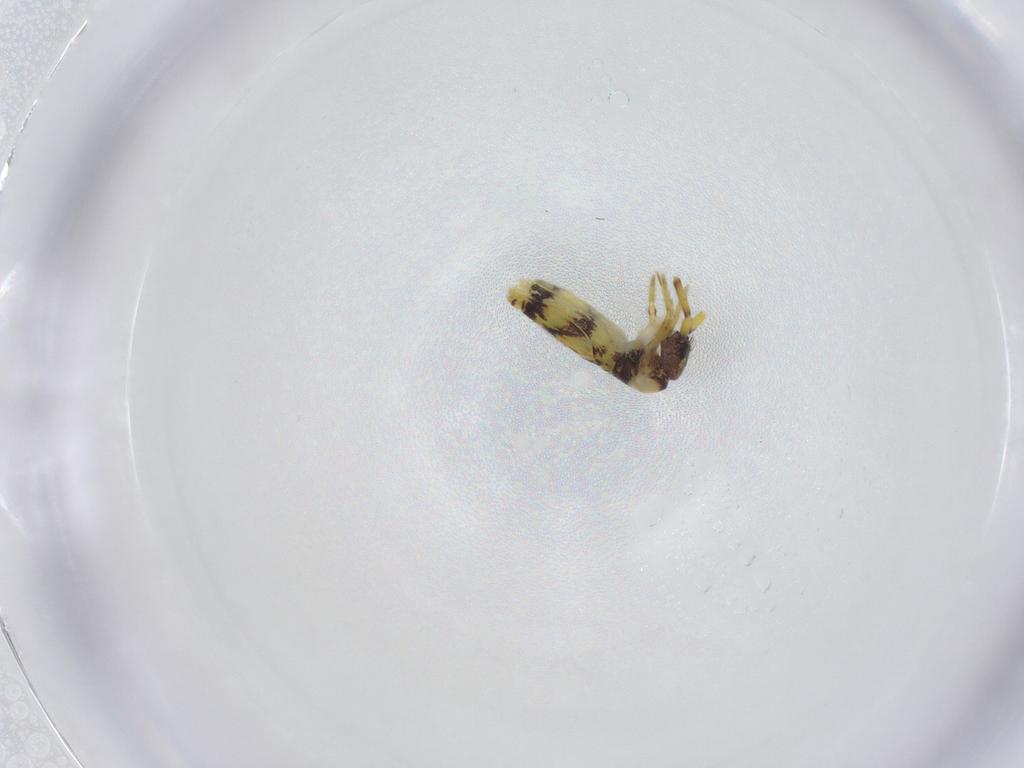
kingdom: Animalia
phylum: Arthropoda
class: Collembola
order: Entomobryomorpha
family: Entomobryidae
